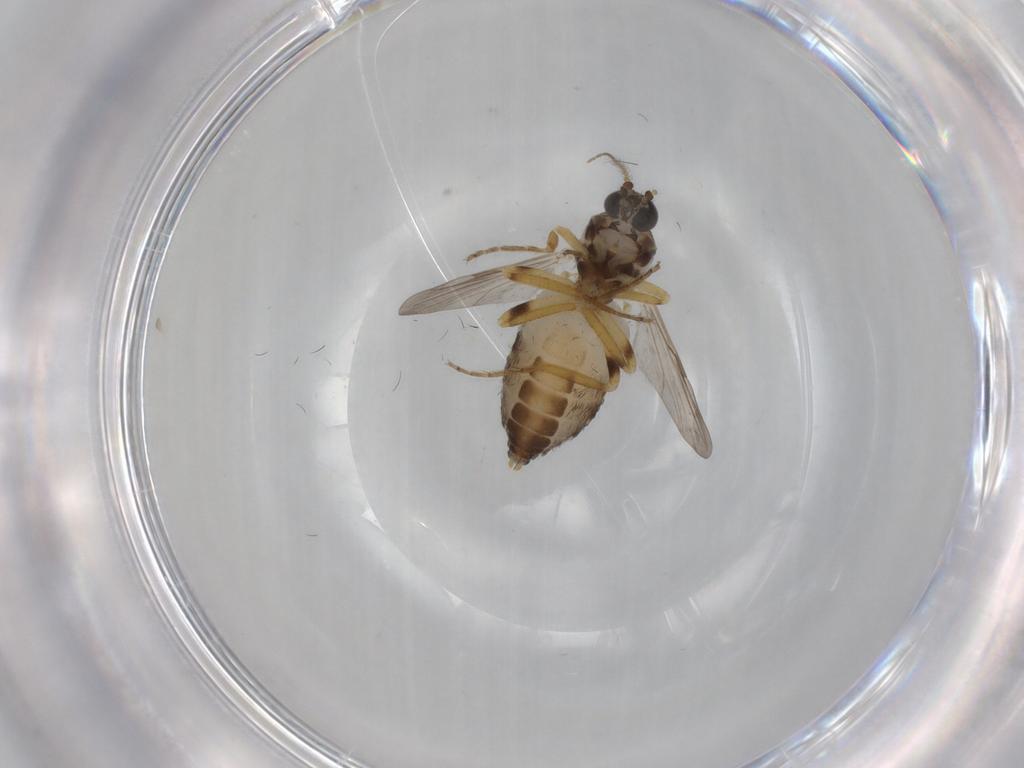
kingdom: Animalia
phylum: Arthropoda
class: Insecta
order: Diptera
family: Ceratopogonidae
